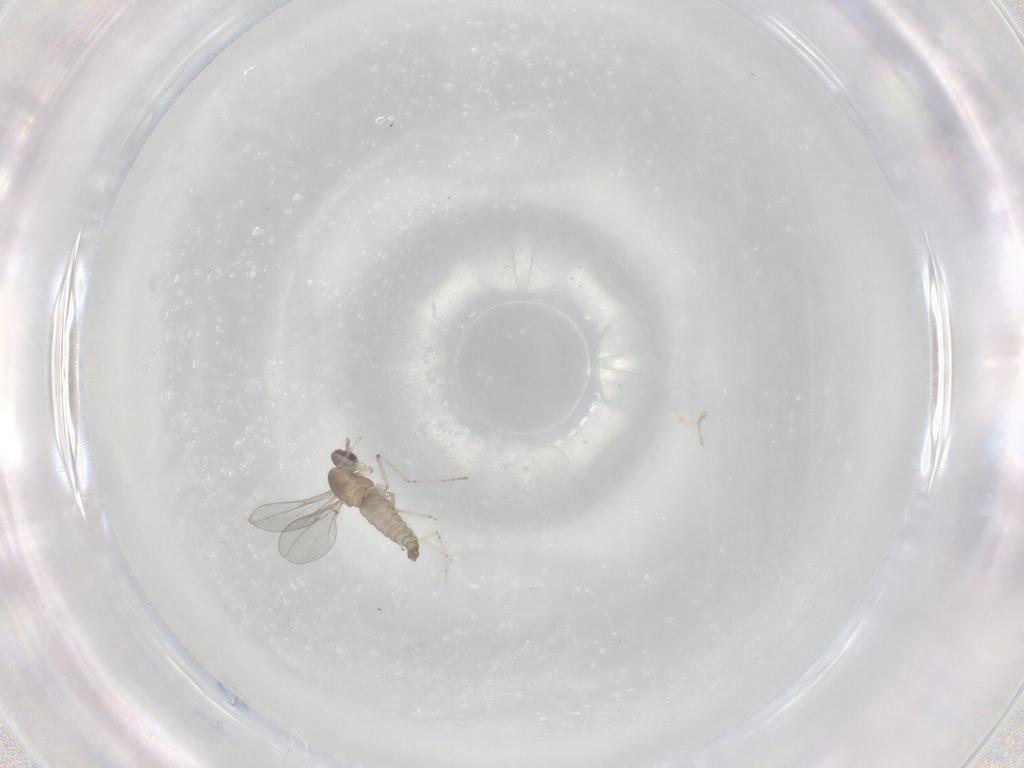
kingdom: Animalia
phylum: Arthropoda
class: Insecta
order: Diptera
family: Cecidomyiidae
